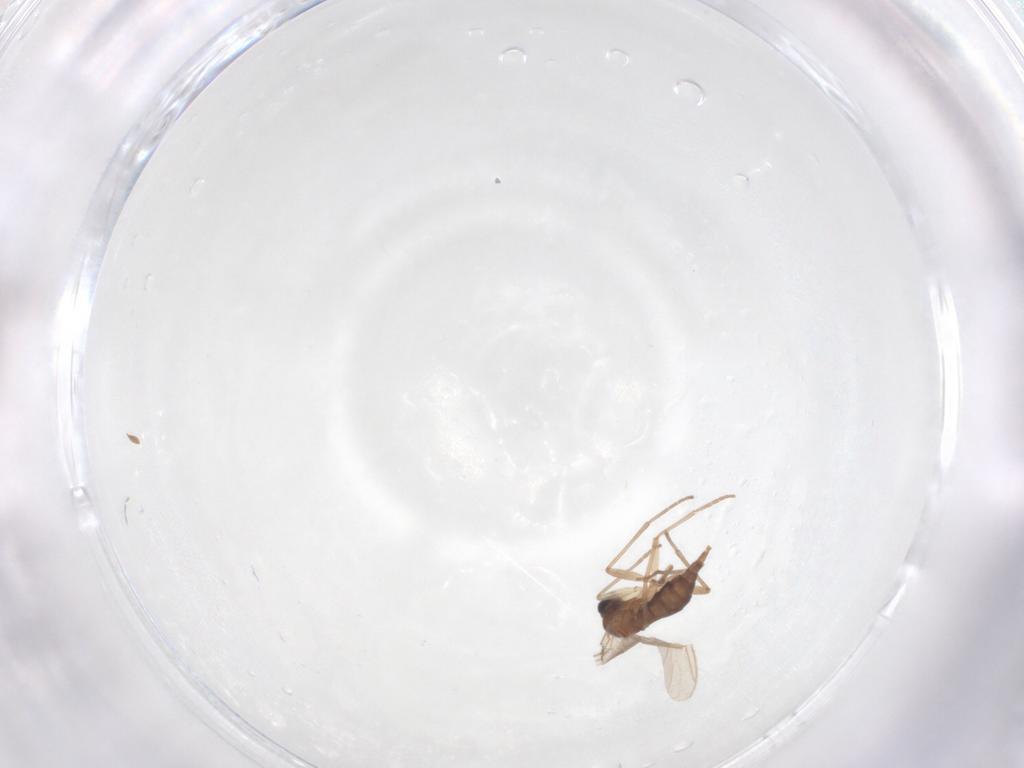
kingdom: Animalia
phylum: Arthropoda
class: Insecta
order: Diptera
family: Sciaridae
